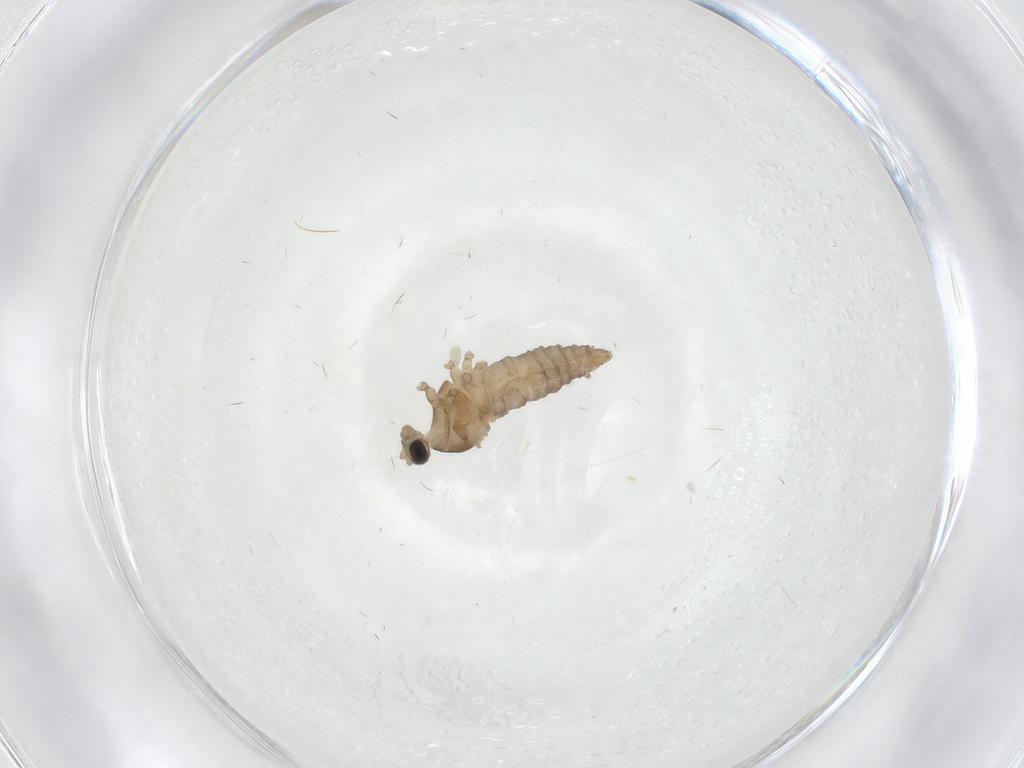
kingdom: Animalia
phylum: Arthropoda
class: Insecta
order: Diptera
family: Cecidomyiidae
